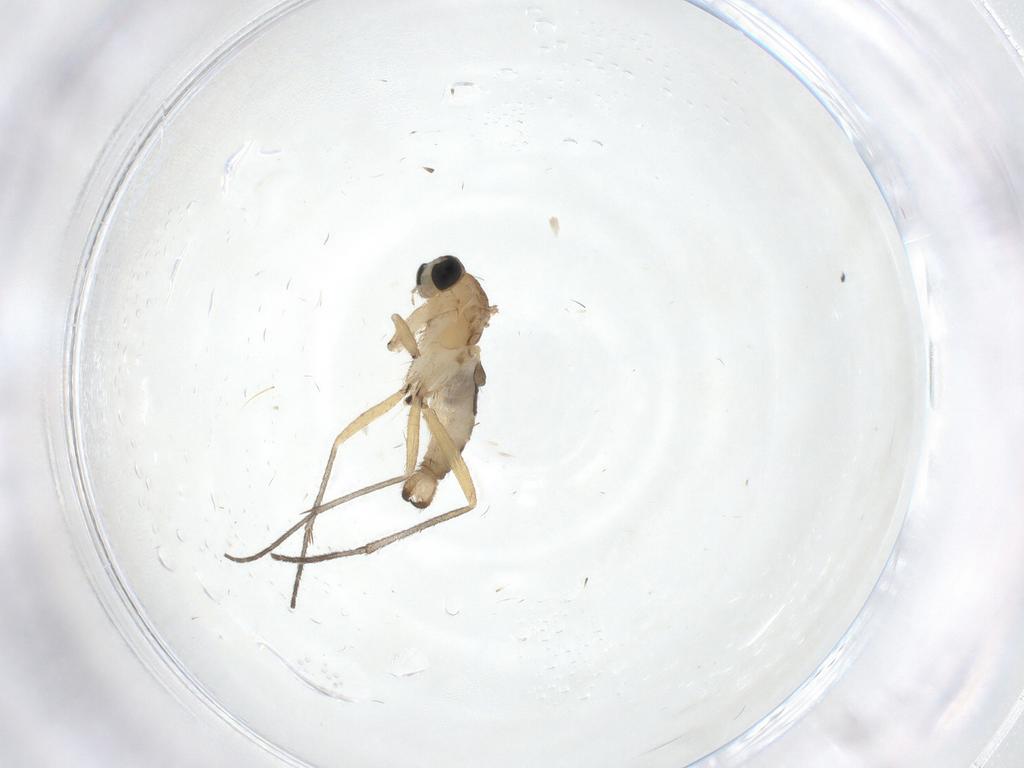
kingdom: Animalia
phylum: Arthropoda
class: Insecta
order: Diptera
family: Sciaridae
